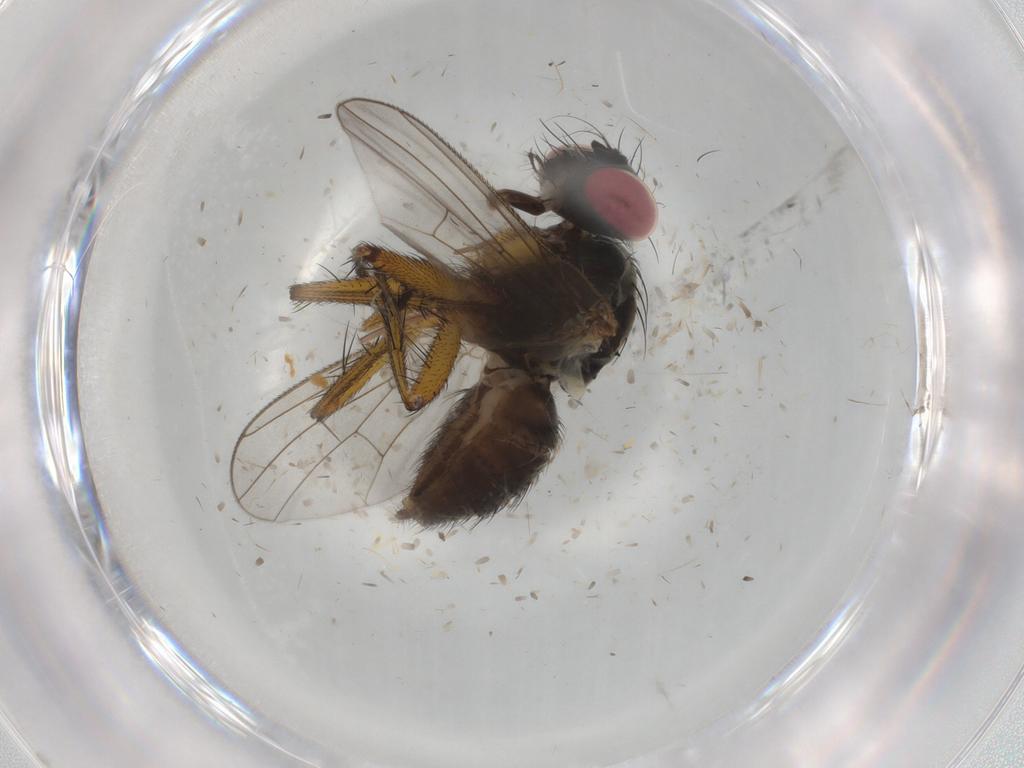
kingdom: Animalia
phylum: Arthropoda
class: Insecta
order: Diptera
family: Muscidae
